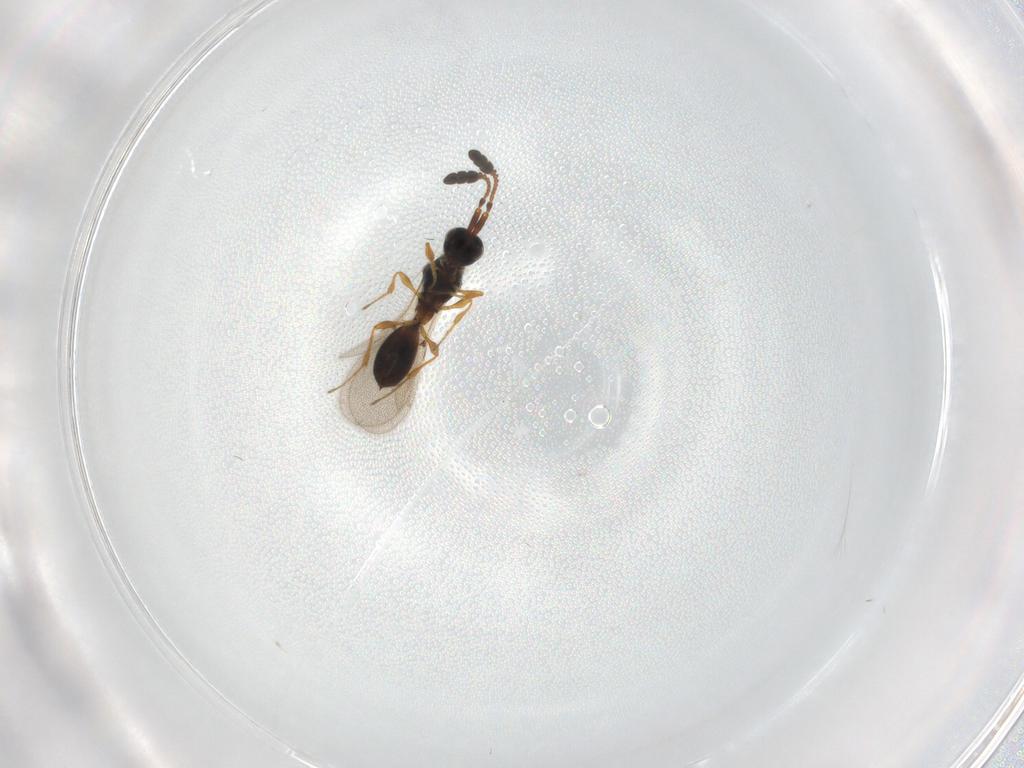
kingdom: Animalia
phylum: Arthropoda
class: Insecta
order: Hymenoptera
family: Diapriidae
